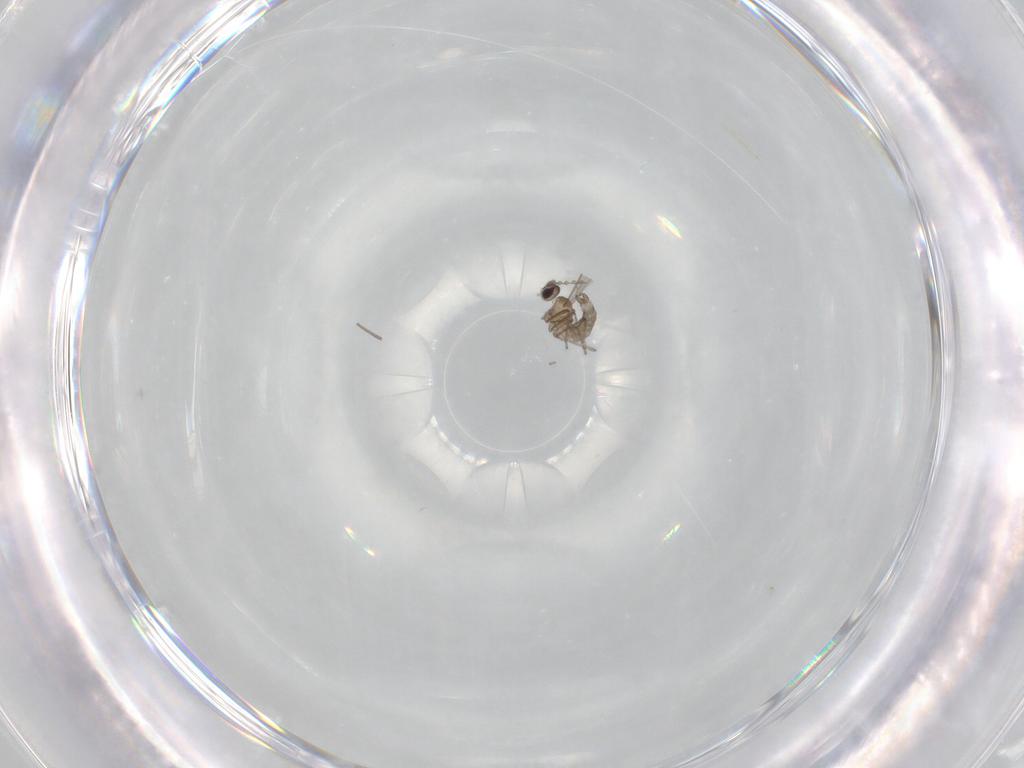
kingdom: Animalia
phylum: Arthropoda
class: Insecta
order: Diptera
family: Cecidomyiidae
